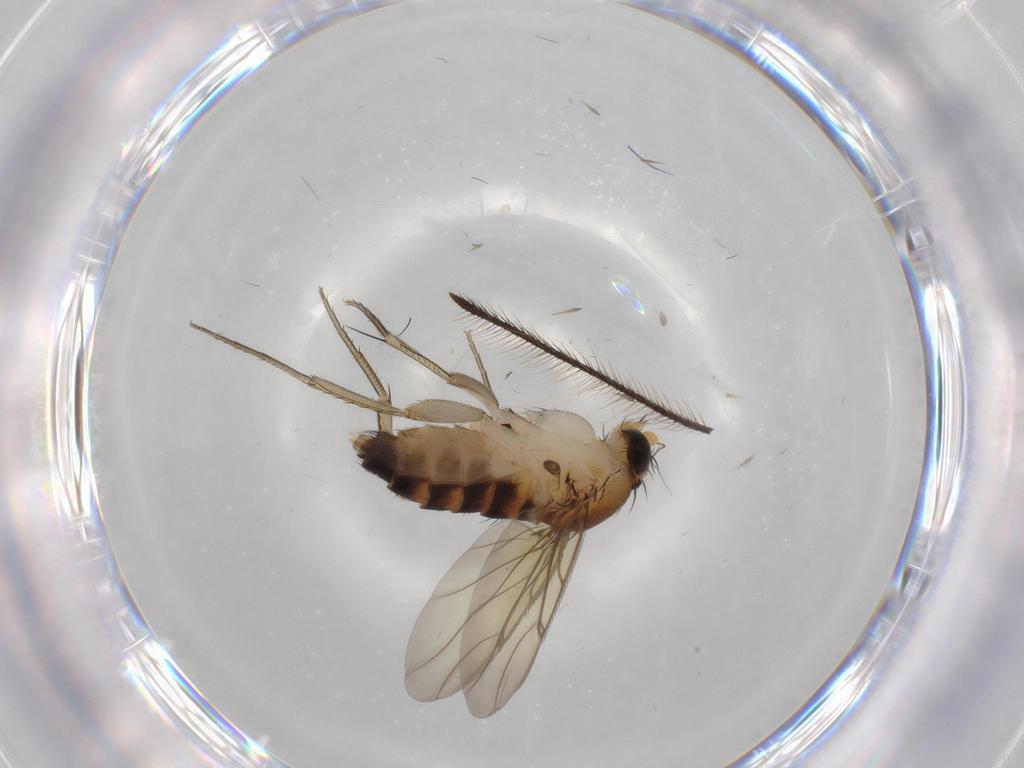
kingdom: Animalia
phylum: Arthropoda
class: Insecta
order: Diptera
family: Phoridae
